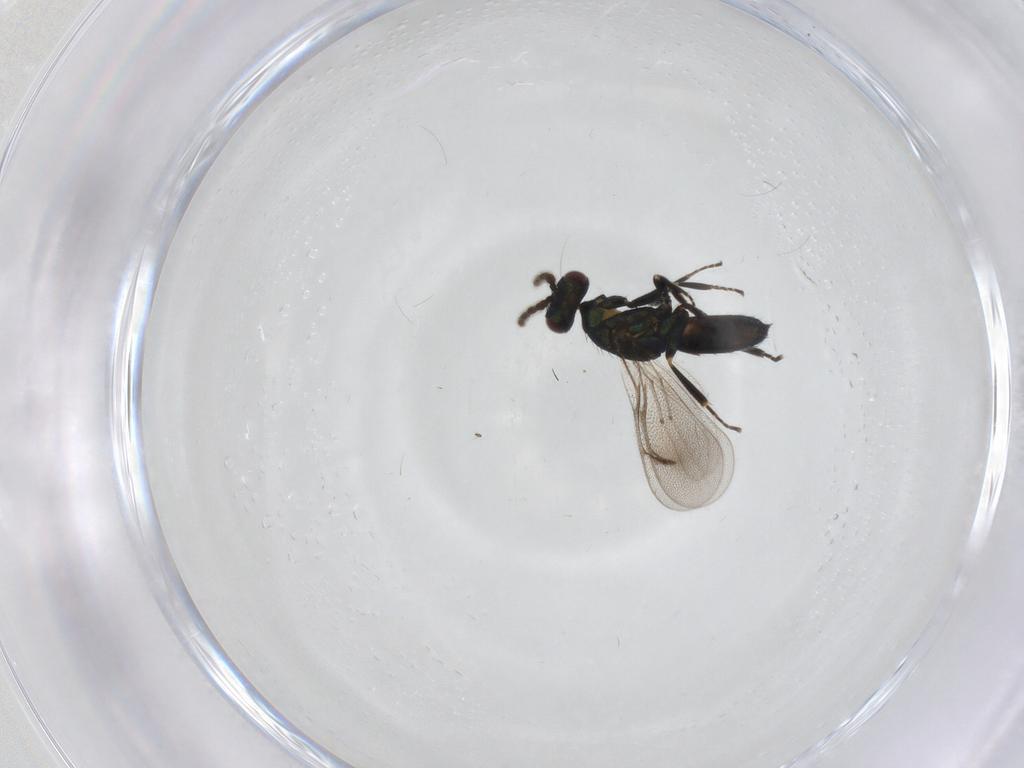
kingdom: Animalia
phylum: Arthropoda
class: Insecta
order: Hymenoptera
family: Eulophidae
